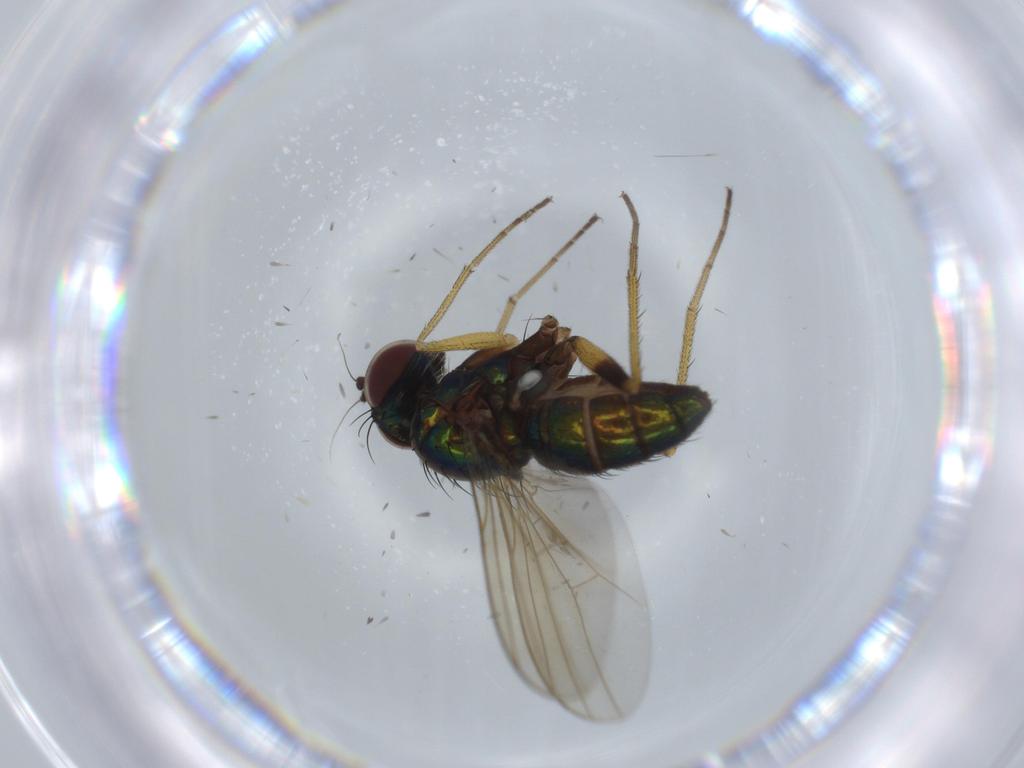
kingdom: Animalia
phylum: Arthropoda
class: Insecta
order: Diptera
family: Dolichopodidae
